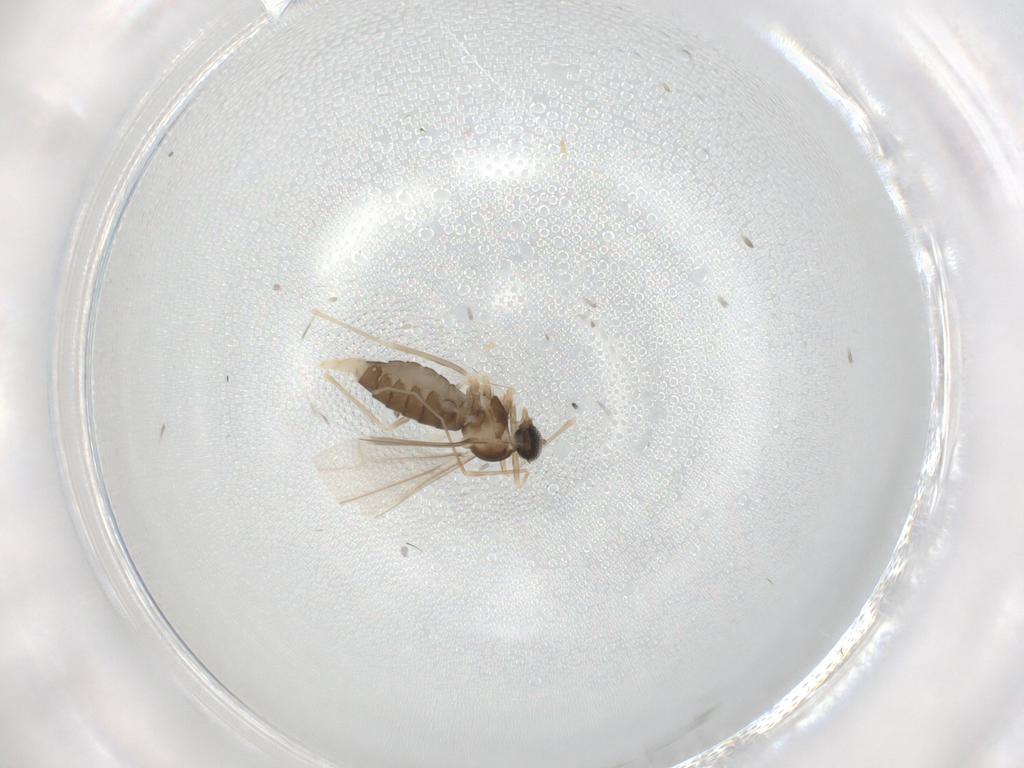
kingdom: Animalia
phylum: Arthropoda
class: Insecta
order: Diptera
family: Cecidomyiidae
